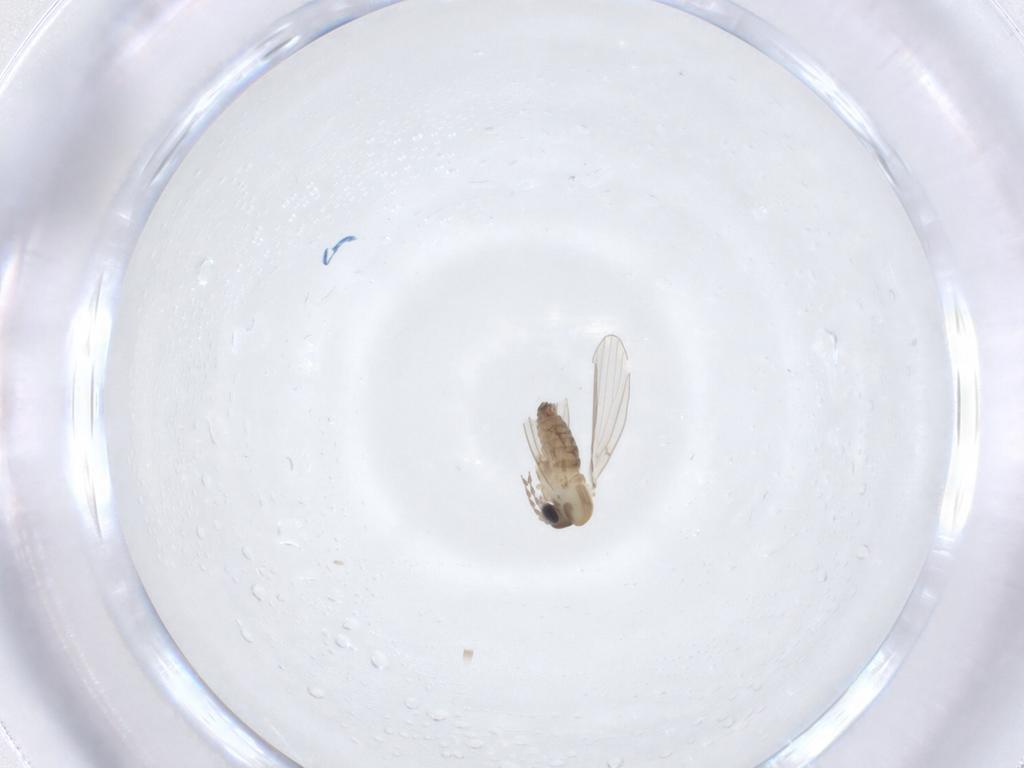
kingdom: Animalia
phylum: Arthropoda
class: Insecta
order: Diptera
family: Psychodidae
